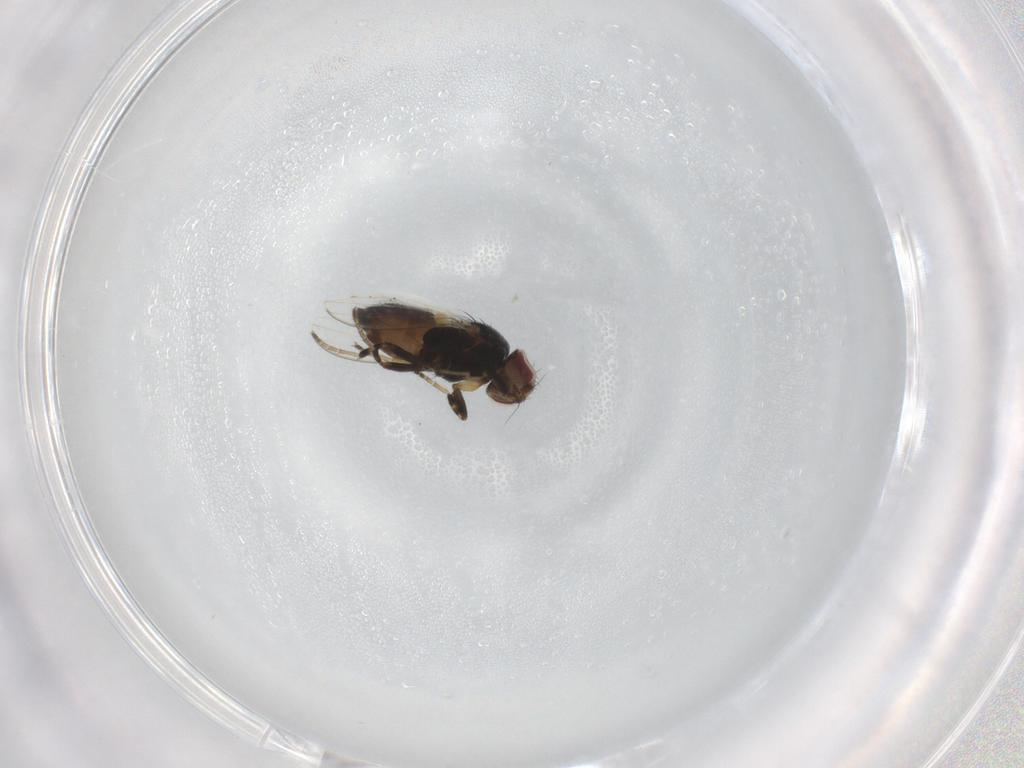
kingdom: Animalia
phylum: Arthropoda
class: Insecta
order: Diptera
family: Milichiidae
